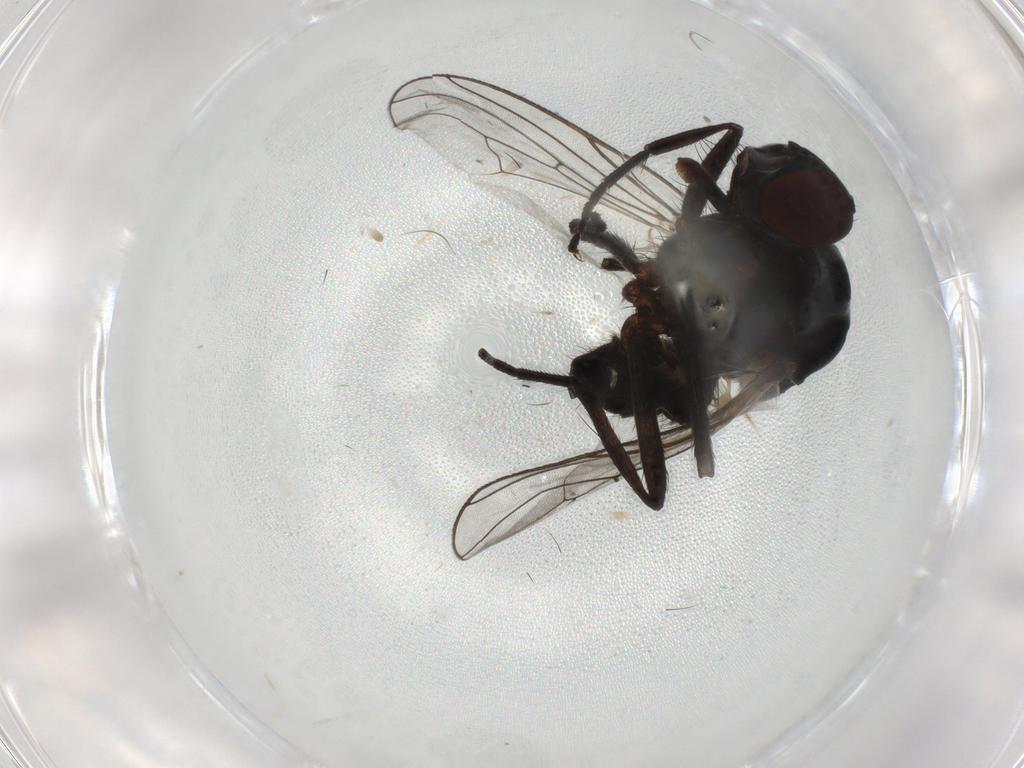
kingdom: Animalia
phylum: Arthropoda
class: Insecta
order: Diptera
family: Anthomyiidae
